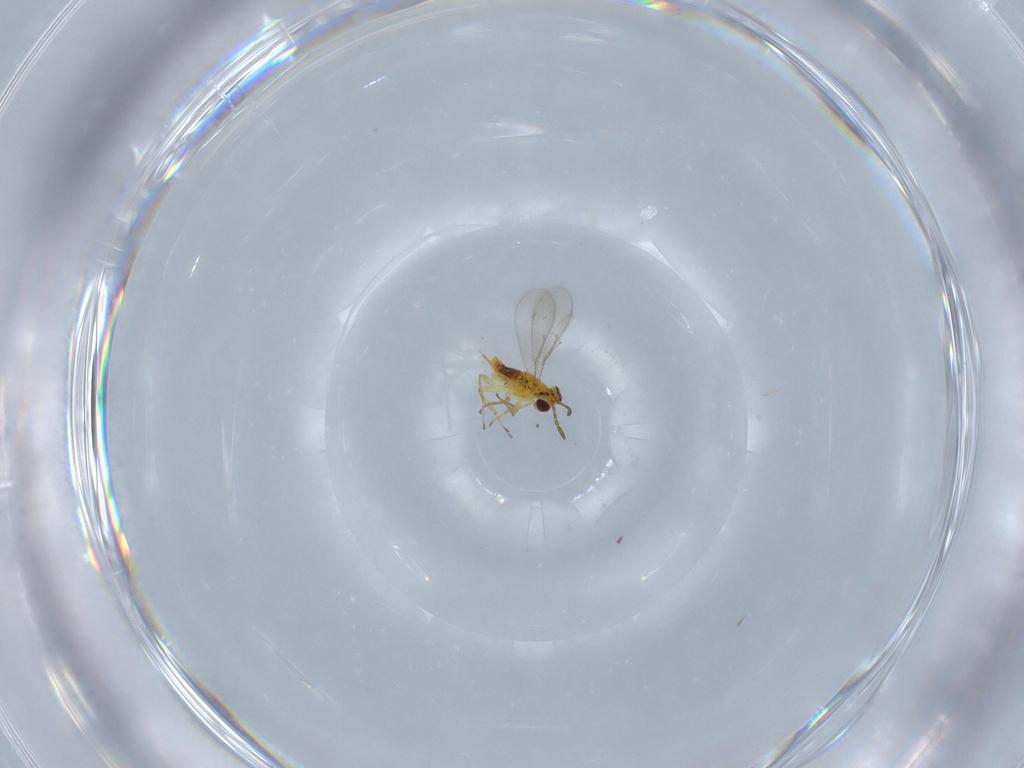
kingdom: Animalia
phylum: Arthropoda
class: Insecta
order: Hymenoptera
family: Aphelinidae
